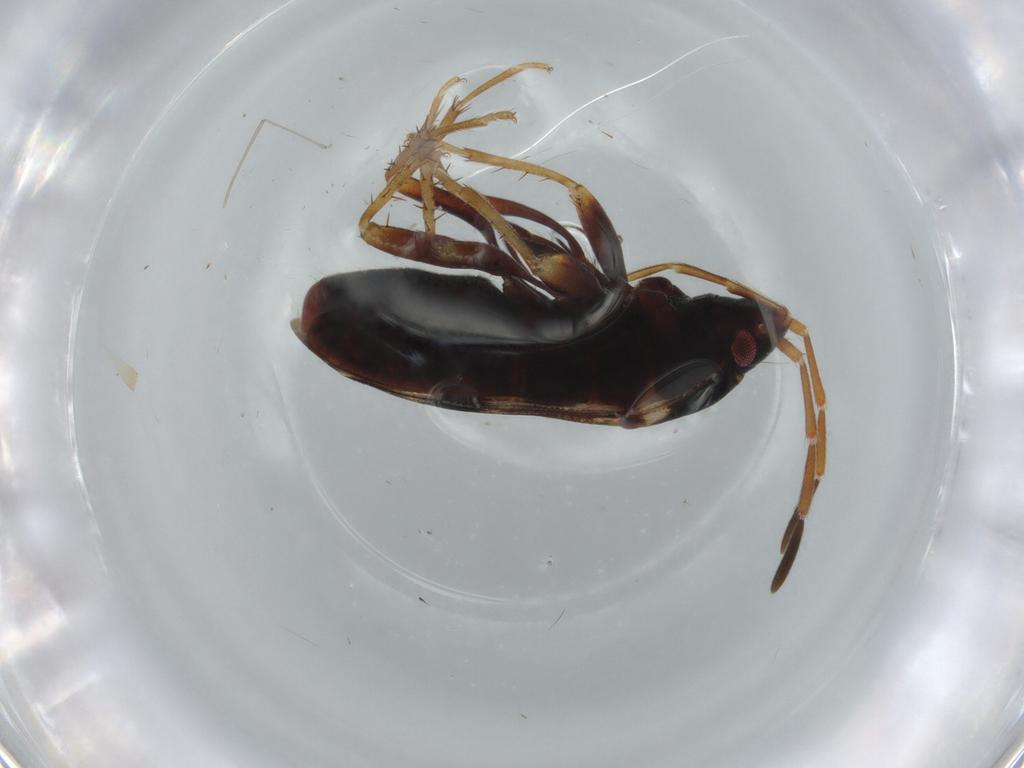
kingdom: Animalia
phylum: Arthropoda
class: Insecta
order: Hemiptera
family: Rhyparochromidae
